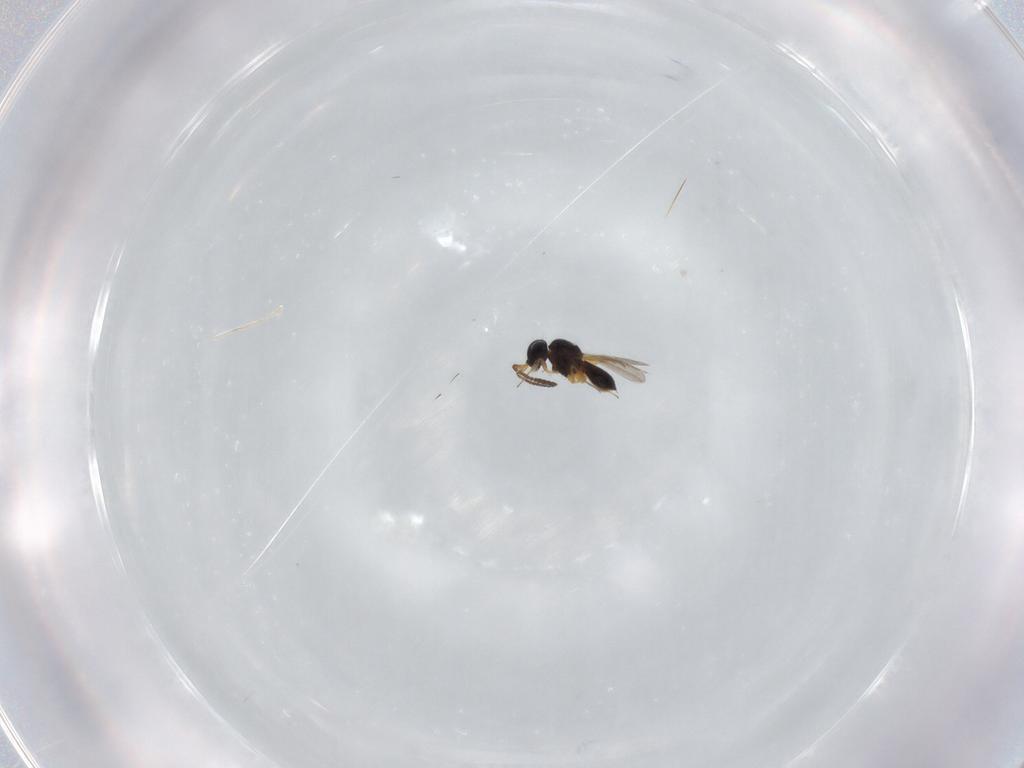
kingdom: Animalia
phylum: Arthropoda
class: Insecta
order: Hymenoptera
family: Scelionidae
